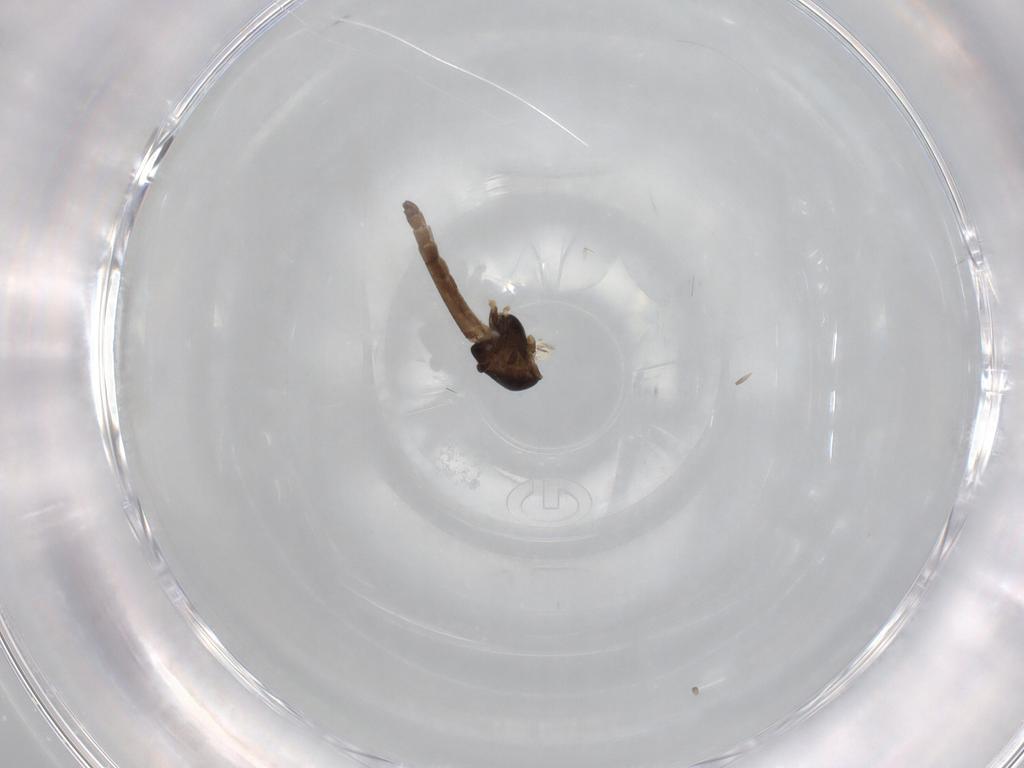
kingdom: Animalia
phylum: Arthropoda
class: Insecta
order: Diptera
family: Chironomidae
